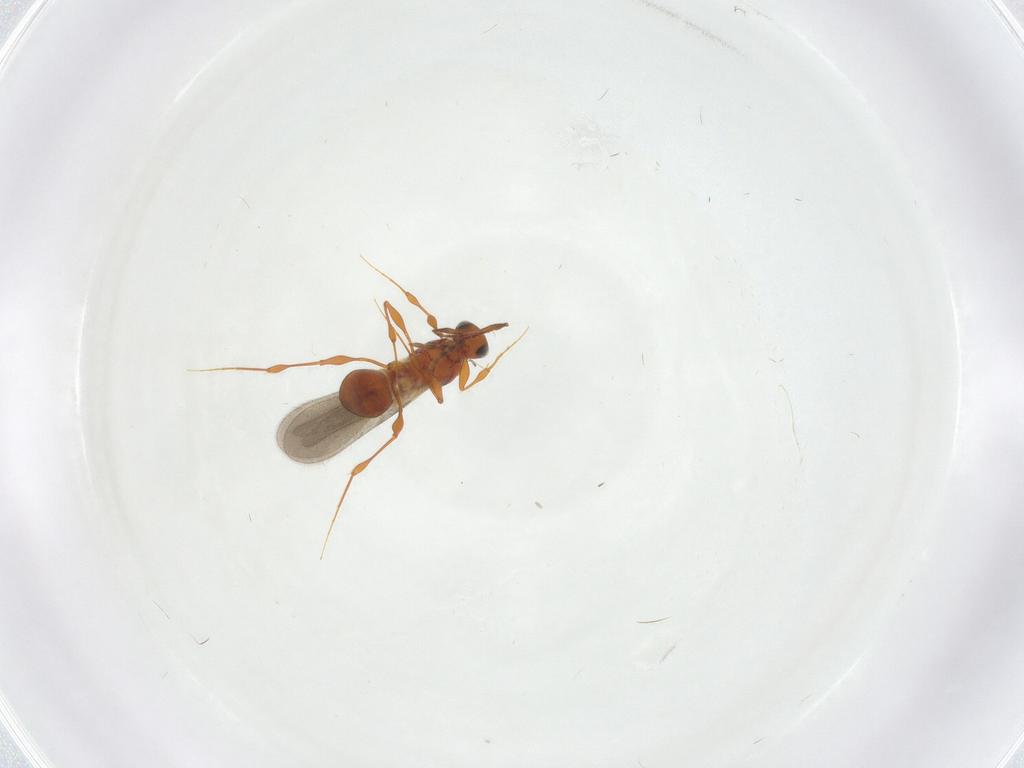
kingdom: Animalia
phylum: Arthropoda
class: Insecta
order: Hymenoptera
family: Platygastridae
